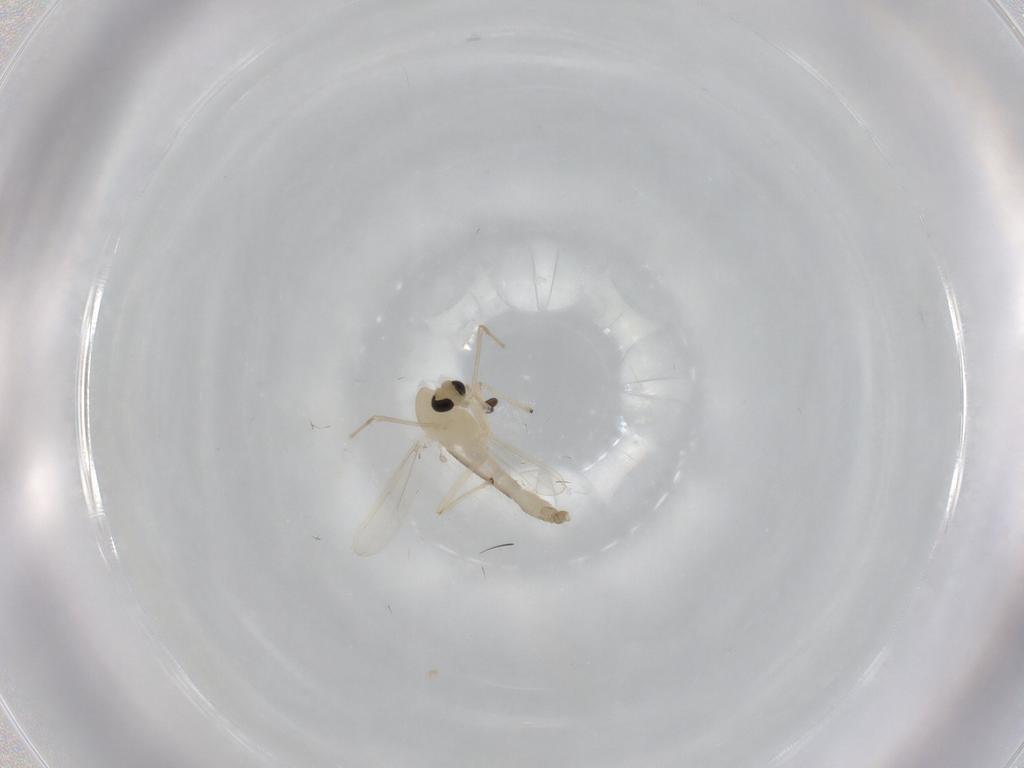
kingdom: Animalia
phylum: Arthropoda
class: Insecta
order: Diptera
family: Chironomidae
